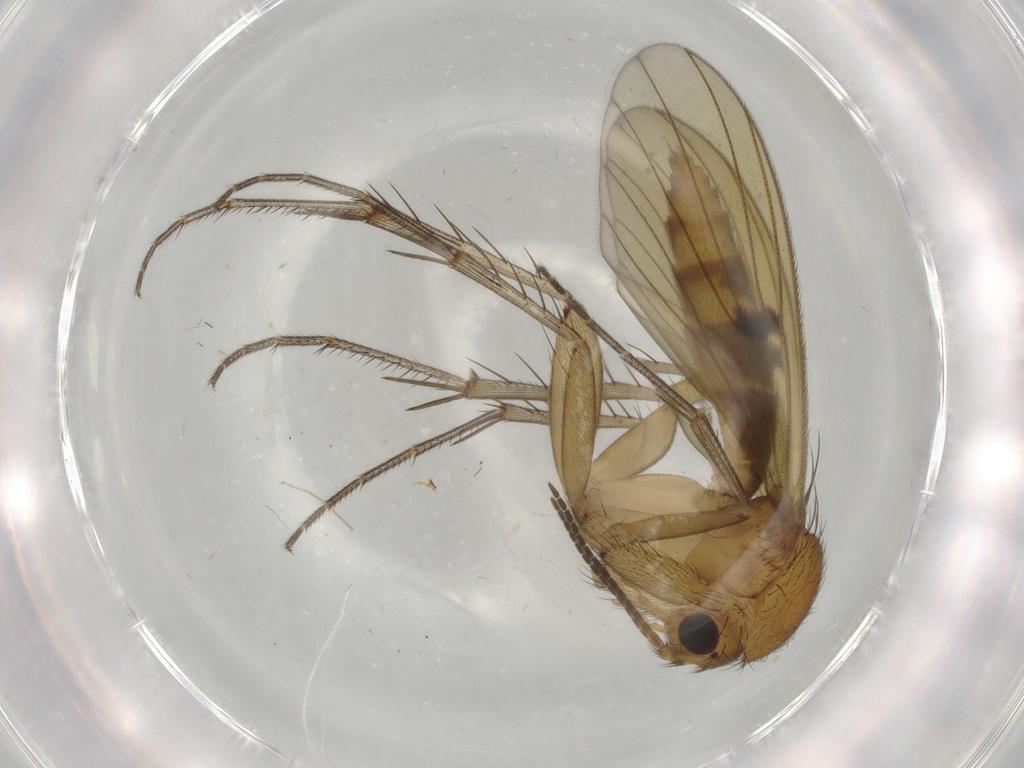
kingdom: Animalia
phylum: Arthropoda
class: Insecta
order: Diptera
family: Mycetophilidae
